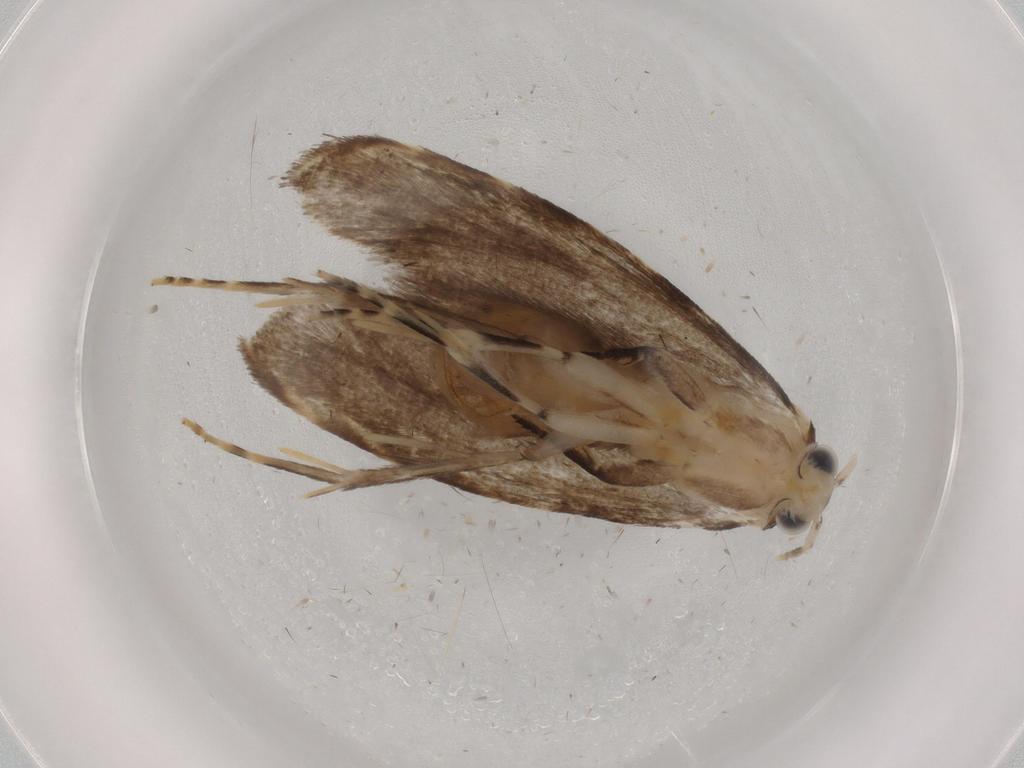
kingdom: Animalia
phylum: Arthropoda
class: Insecta
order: Lepidoptera
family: Tineidae
